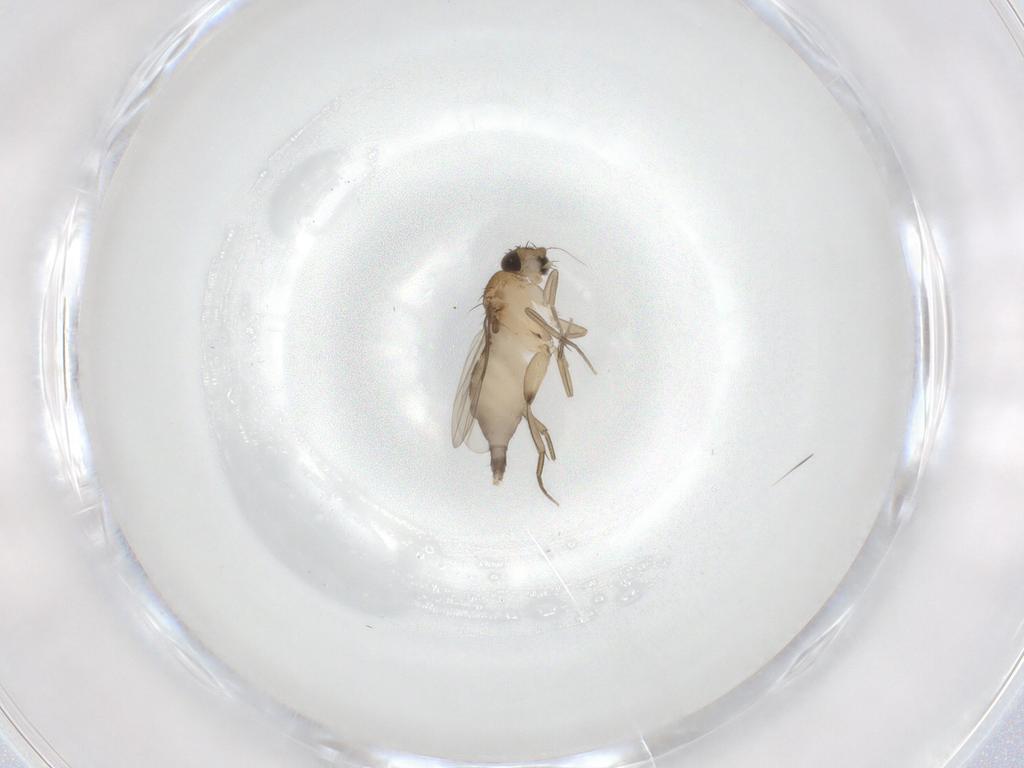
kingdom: Animalia
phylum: Arthropoda
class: Insecta
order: Diptera
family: Phoridae
